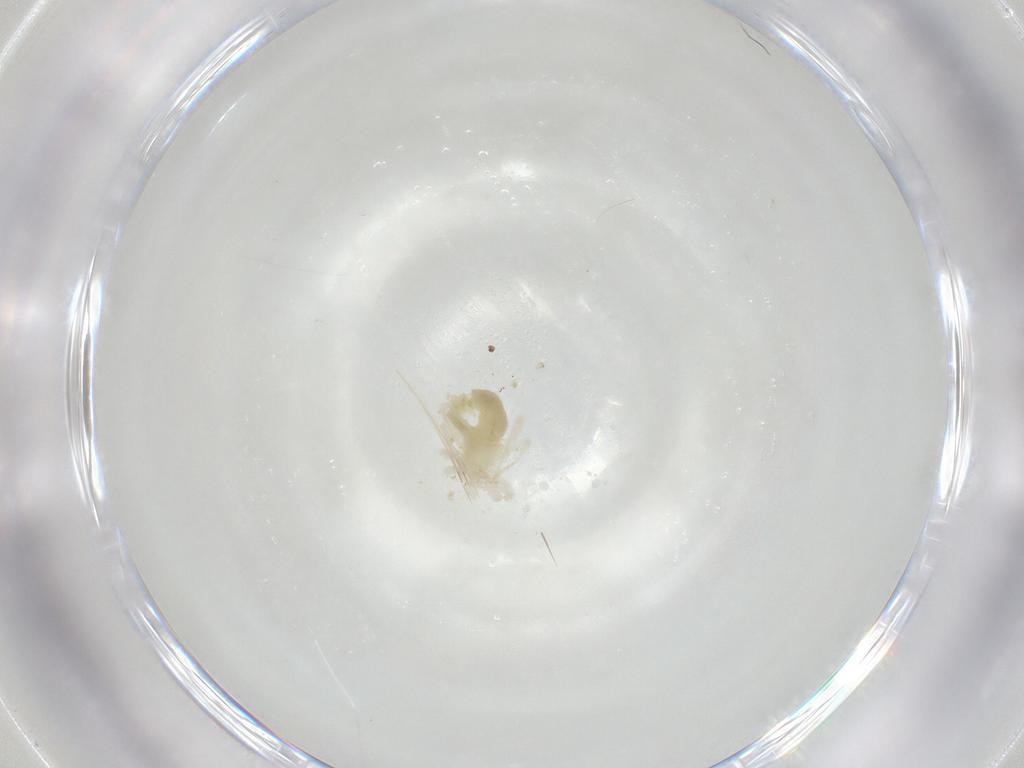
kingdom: Animalia
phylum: Arthropoda
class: Arachnida
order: Trombidiformes
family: Anystidae
